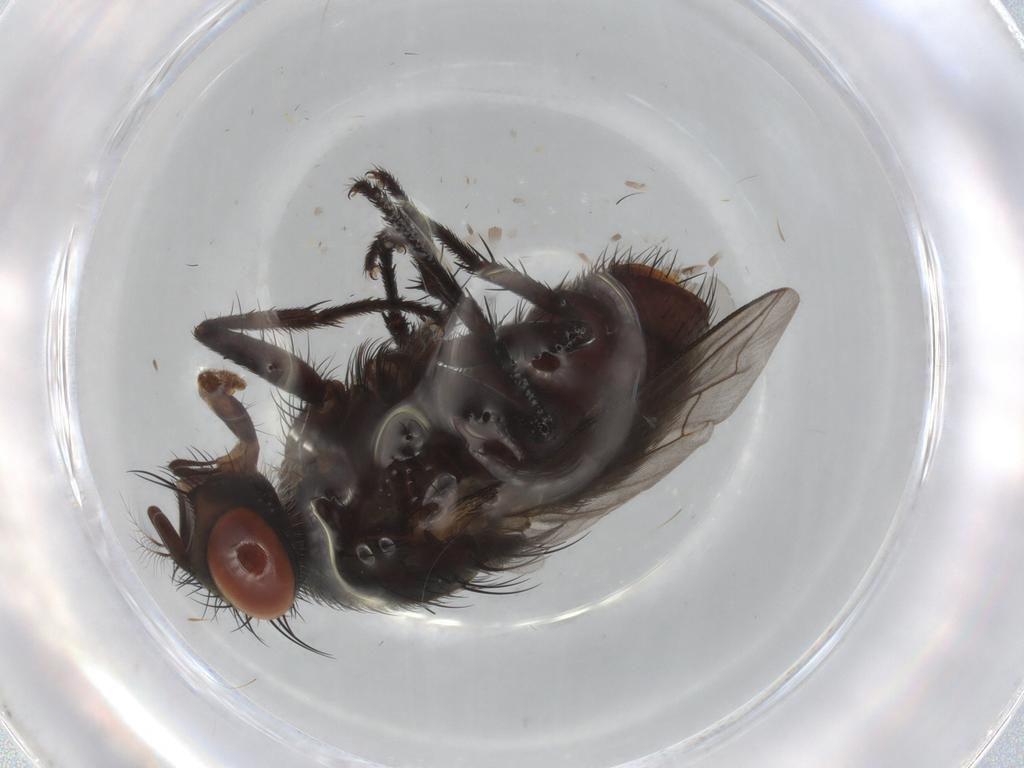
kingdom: Animalia
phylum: Arthropoda
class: Insecta
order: Diptera
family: Sarcophagidae
